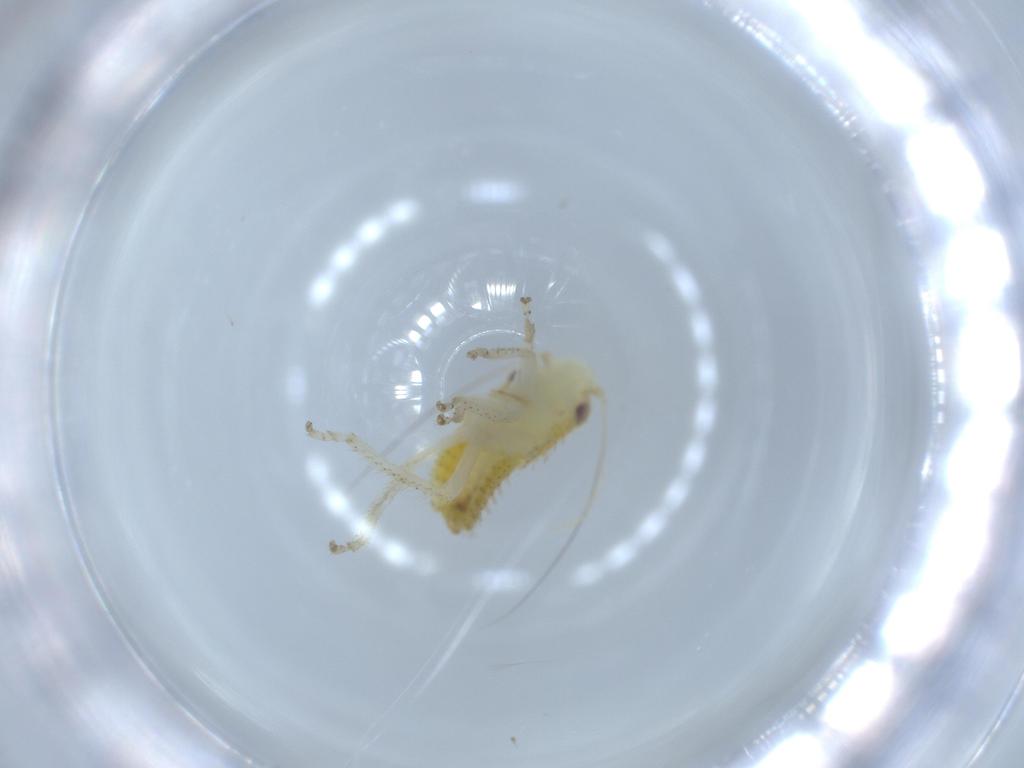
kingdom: Animalia
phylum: Arthropoda
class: Insecta
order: Hemiptera
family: Cicadellidae
